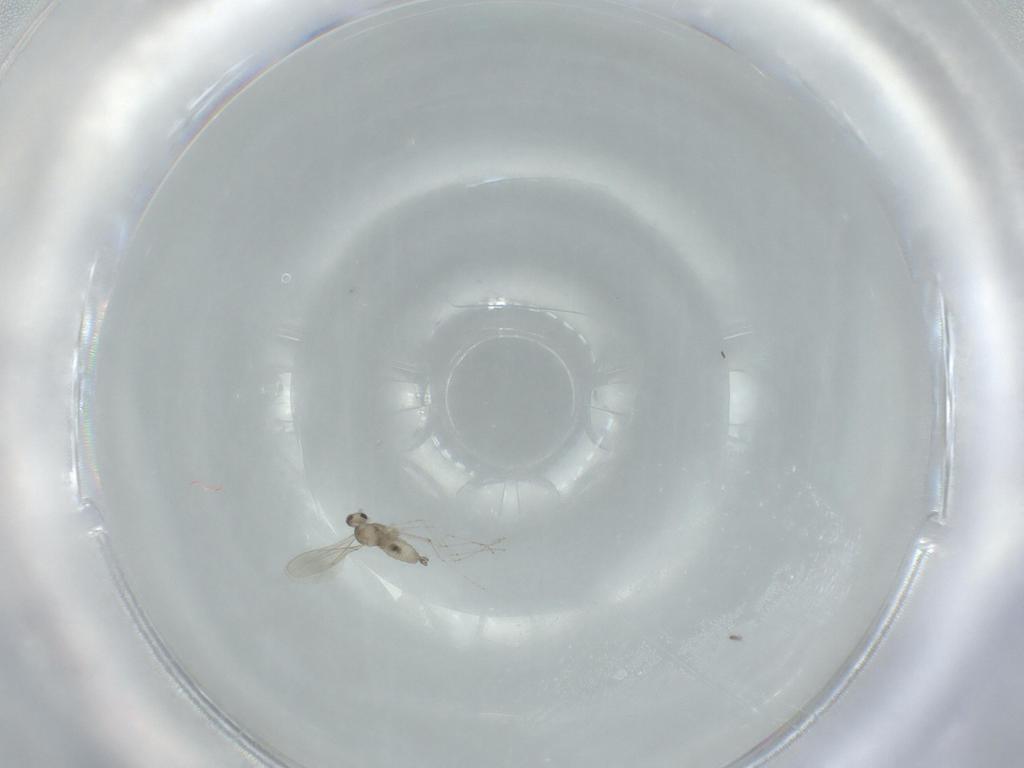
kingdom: Animalia
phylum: Arthropoda
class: Insecta
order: Diptera
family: Cecidomyiidae
